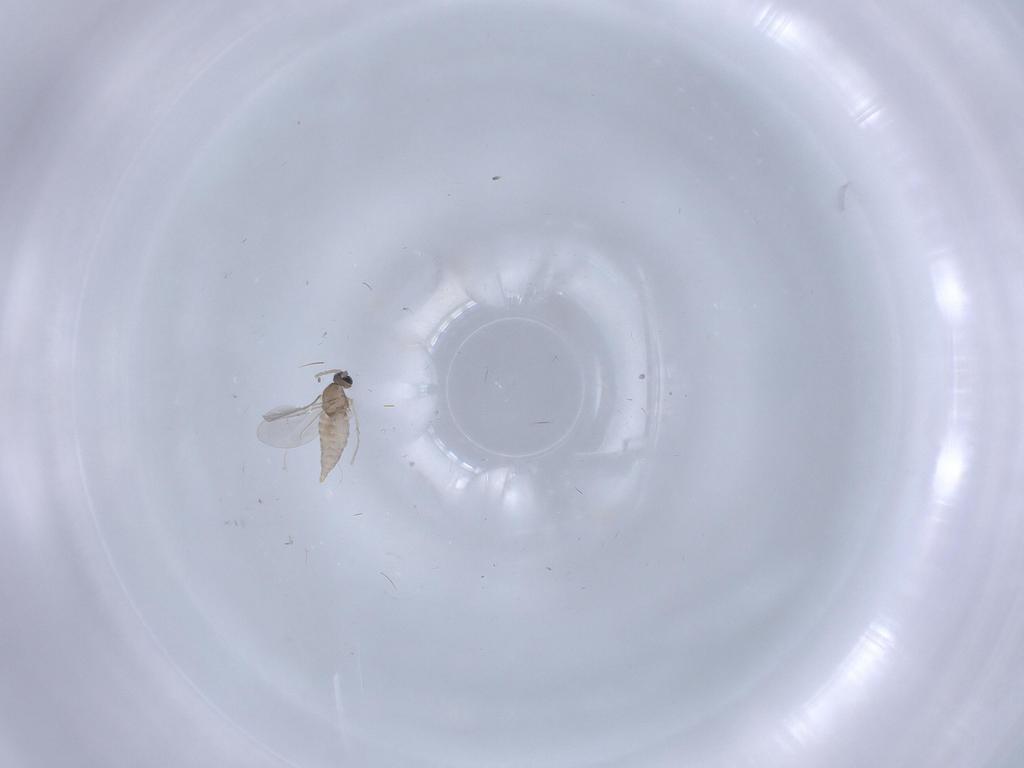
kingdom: Animalia
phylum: Arthropoda
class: Insecta
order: Diptera
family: Cecidomyiidae
